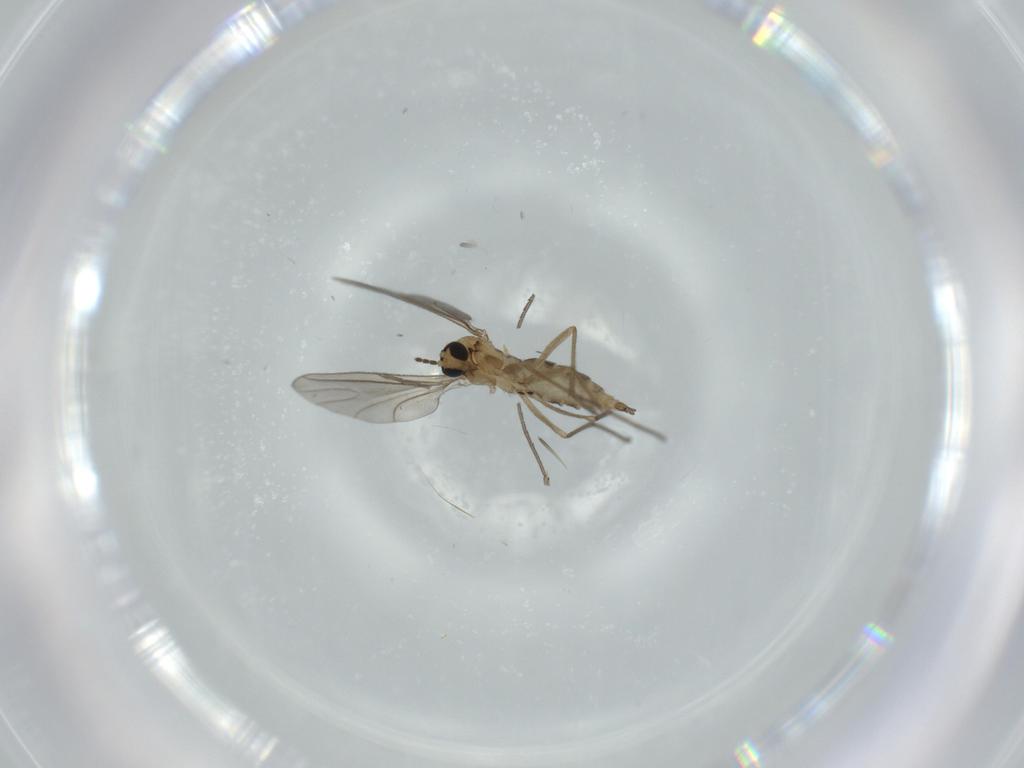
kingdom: Animalia
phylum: Arthropoda
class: Insecta
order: Diptera
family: Sciaridae
